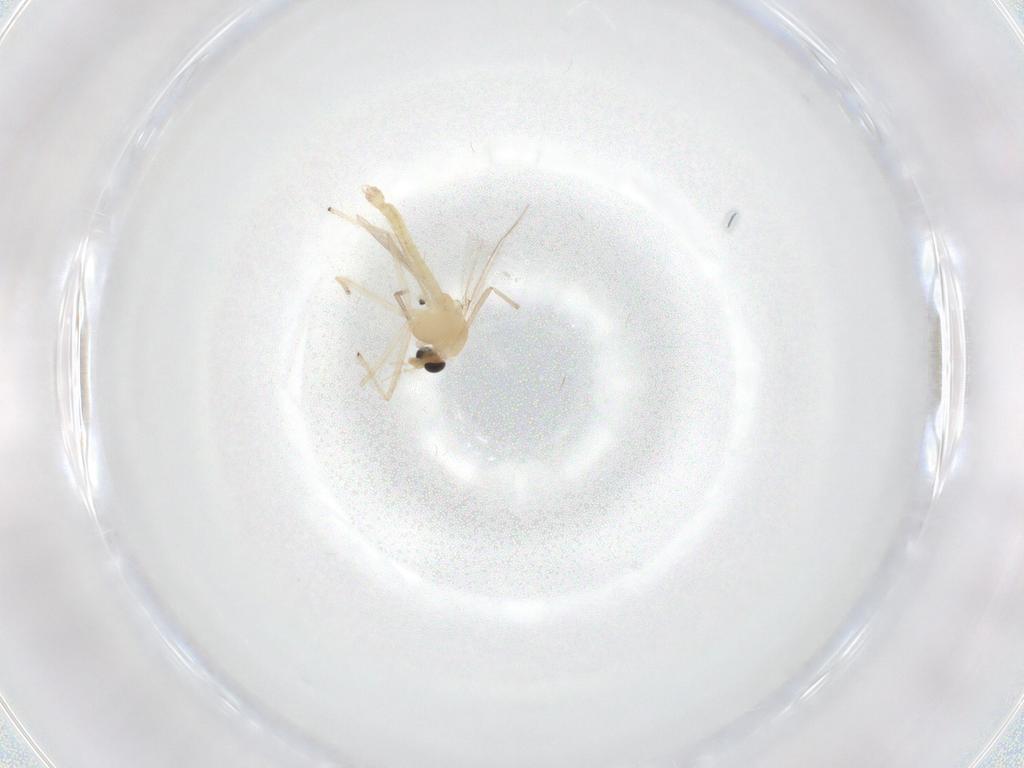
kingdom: Animalia
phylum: Arthropoda
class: Insecta
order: Diptera
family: Chironomidae
